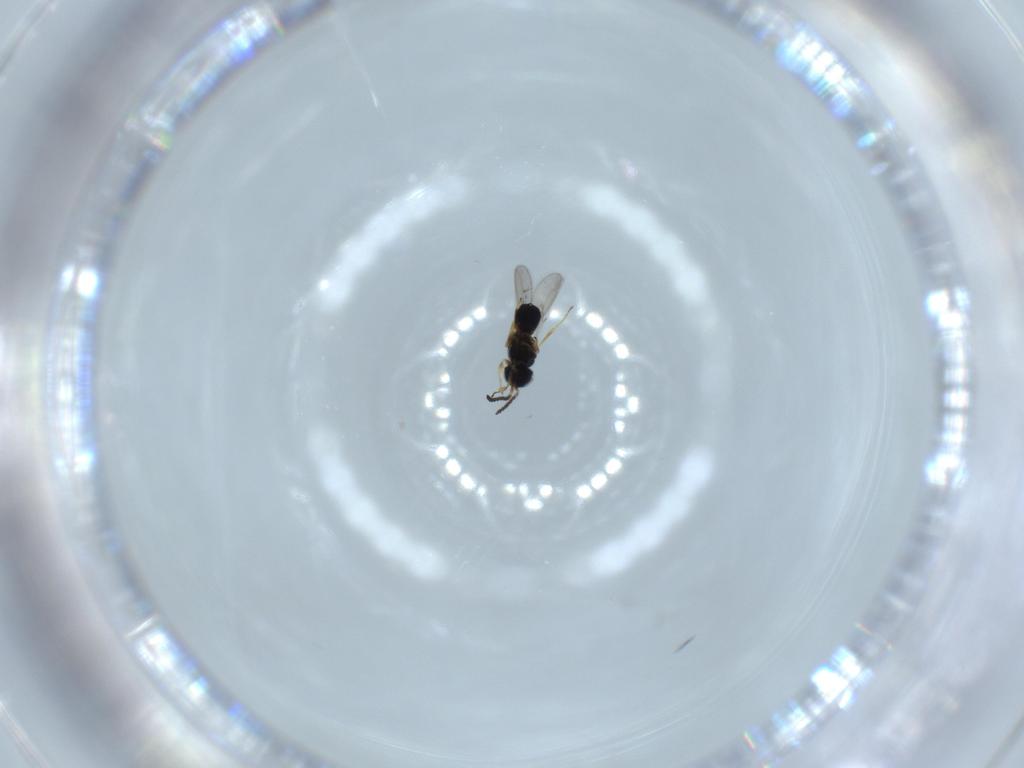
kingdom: Animalia
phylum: Arthropoda
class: Insecta
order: Hymenoptera
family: Scelionidae
